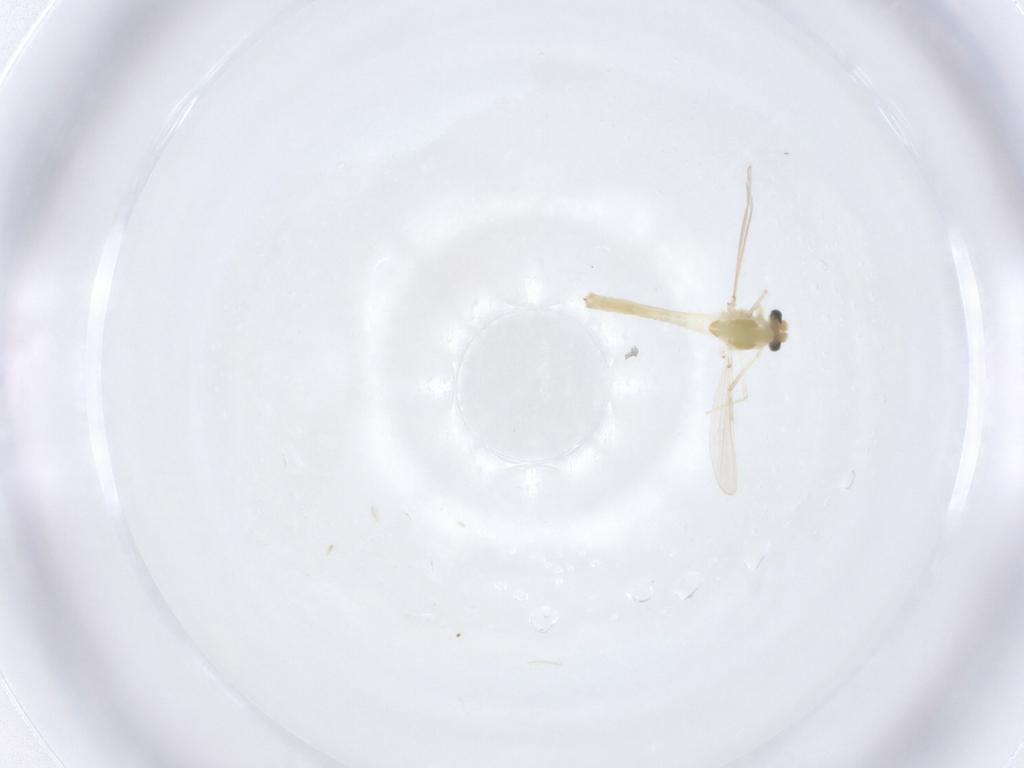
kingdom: Animalia
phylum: Arthropoda
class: Insecta
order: Diptera
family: Chironomidae
